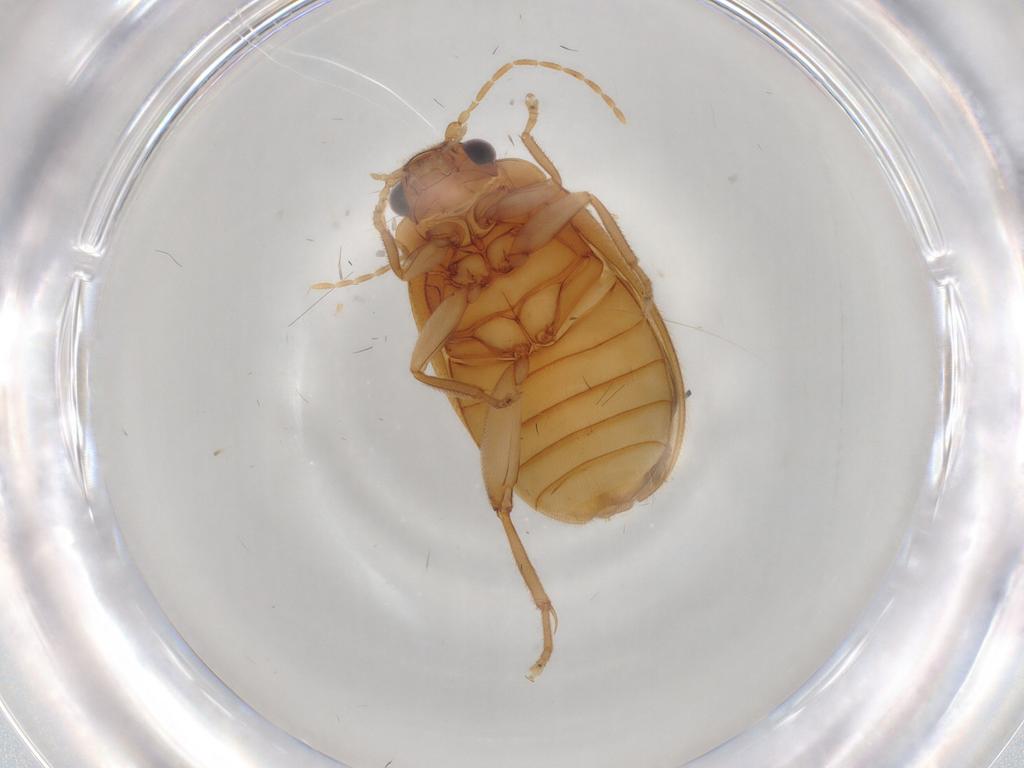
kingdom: Animalia
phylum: Arthropoda
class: Insecta
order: Coleoptera
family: Scirtidae
